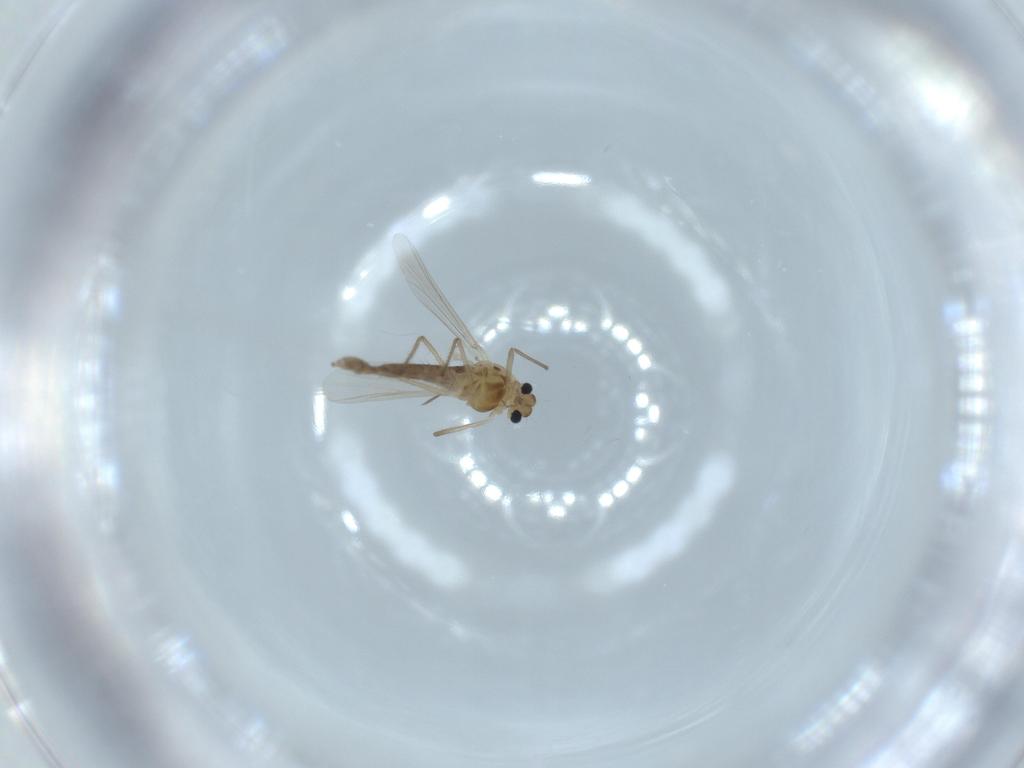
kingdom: Animalia
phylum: Arthropoda
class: Insecta
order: Diptera
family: Chironomidae
